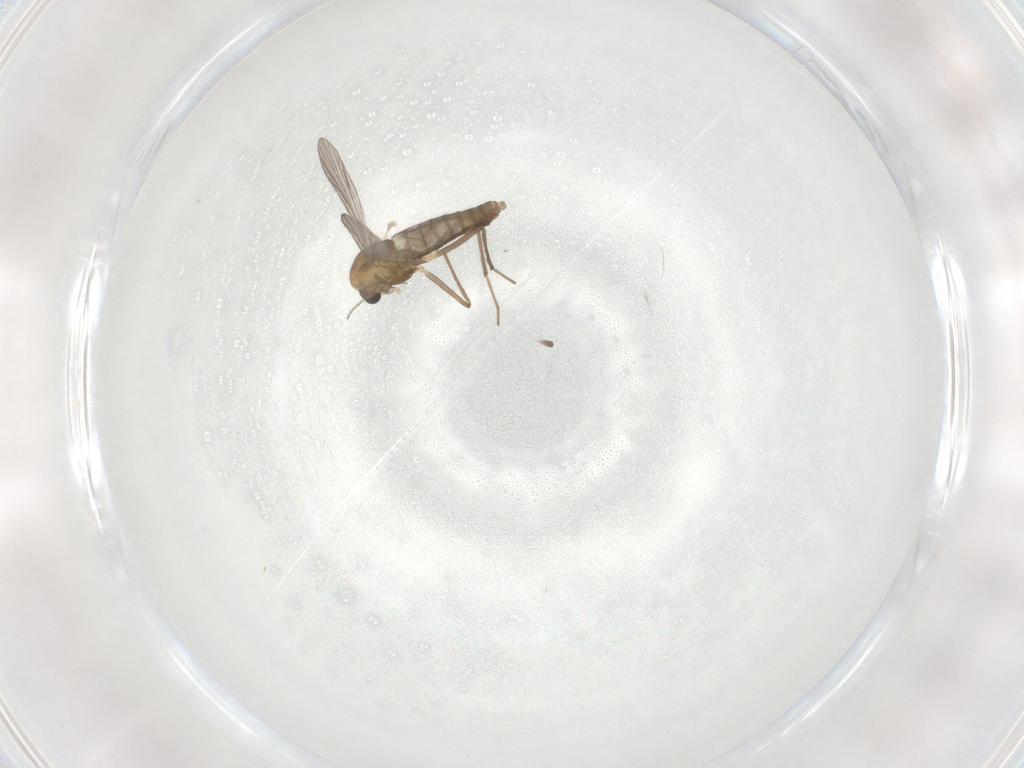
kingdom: Animalia
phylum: Arthropoda
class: Insecta
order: Diptera
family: Chironomidae
